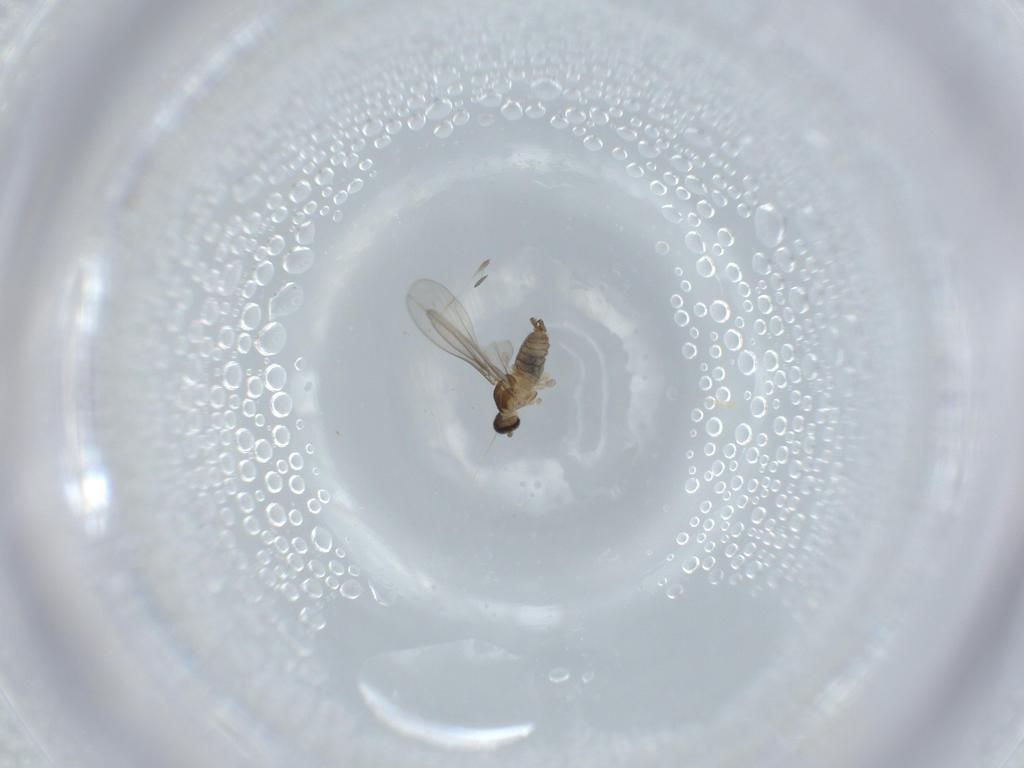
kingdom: Animalia
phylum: Arthropoda
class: Insecta
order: Diptera
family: Cecidomyiidae
